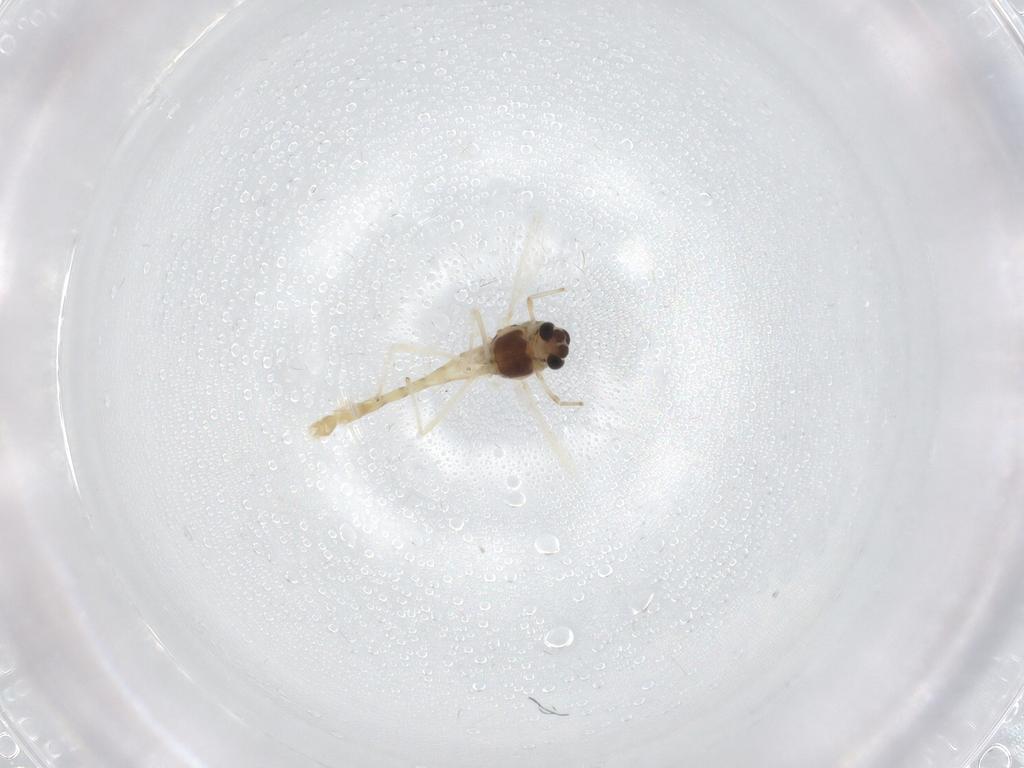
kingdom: Animalia
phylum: Arthropoda
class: Insecta
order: Diptera
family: Chironomidae
